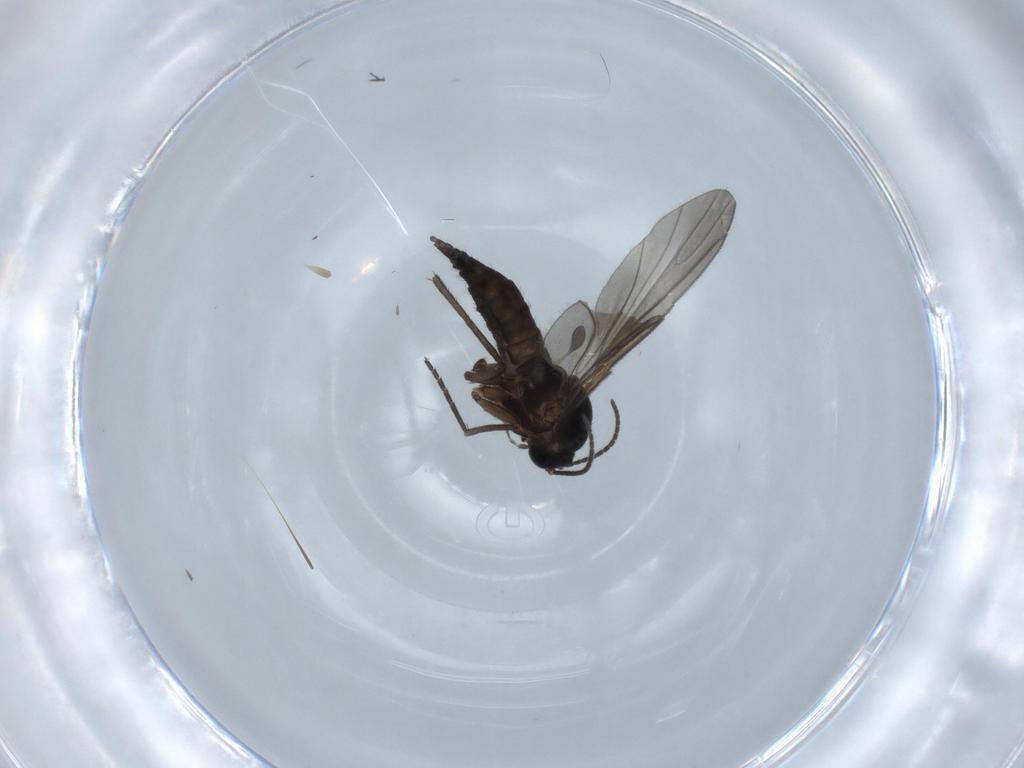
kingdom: Animalia
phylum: Arthropoda
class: Insecta
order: Diptera
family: Sciaridae
